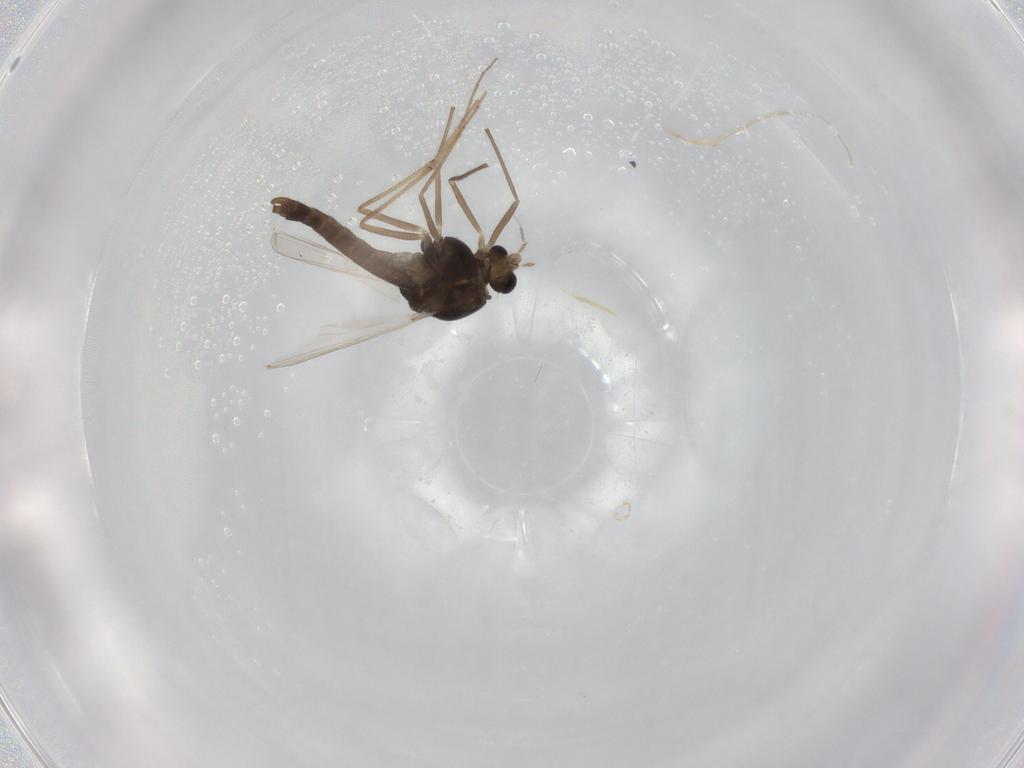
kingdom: Animalia
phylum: Arthropoda
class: Insecta
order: Diptera
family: Chironomidae
